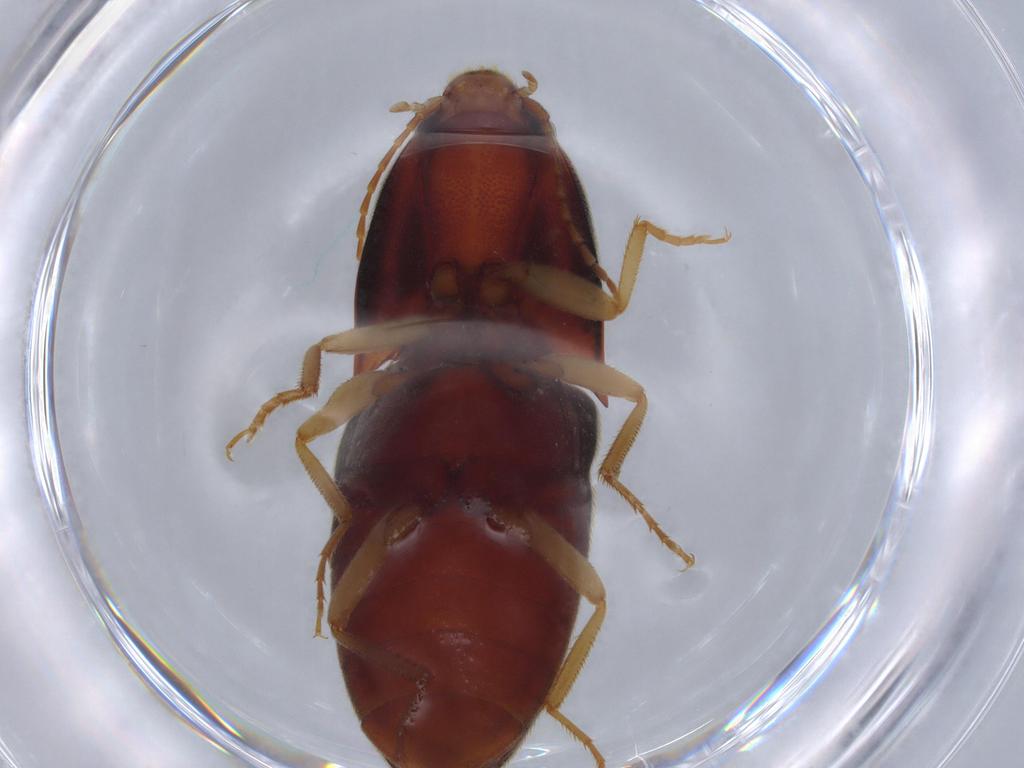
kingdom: Animalia
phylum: Arthropoda
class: Insecta
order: Coleoptera
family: Elateridae
